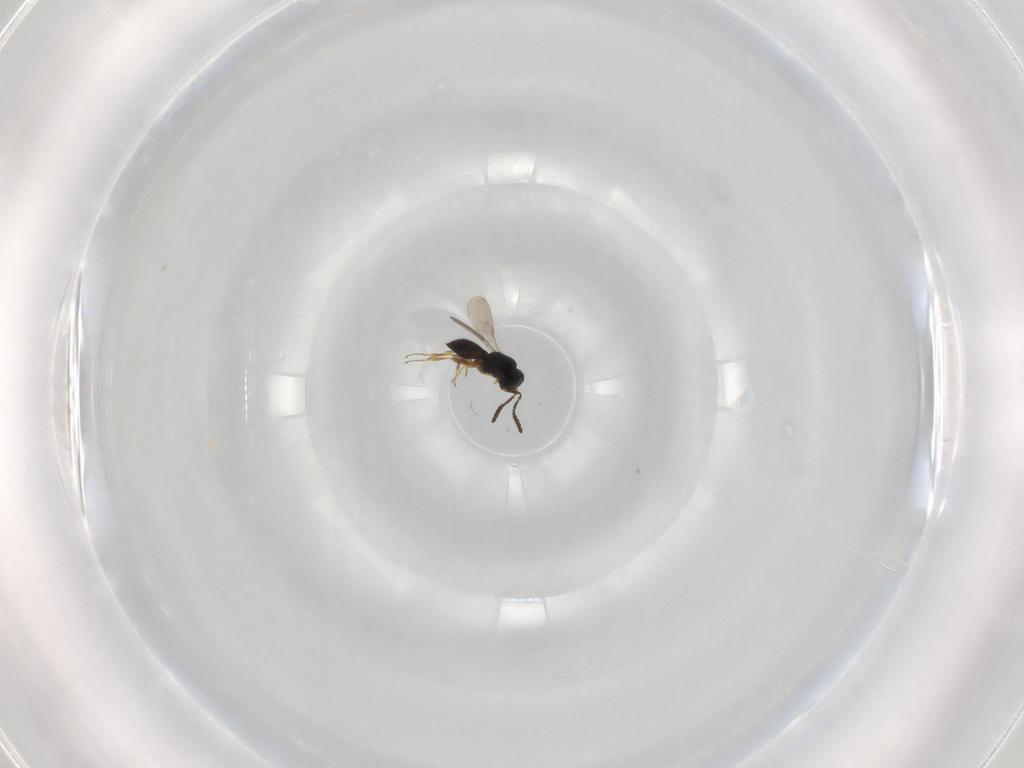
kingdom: Animalia
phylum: Arthropoda
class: Insecta
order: Hymenoptera
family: Scelionidae
